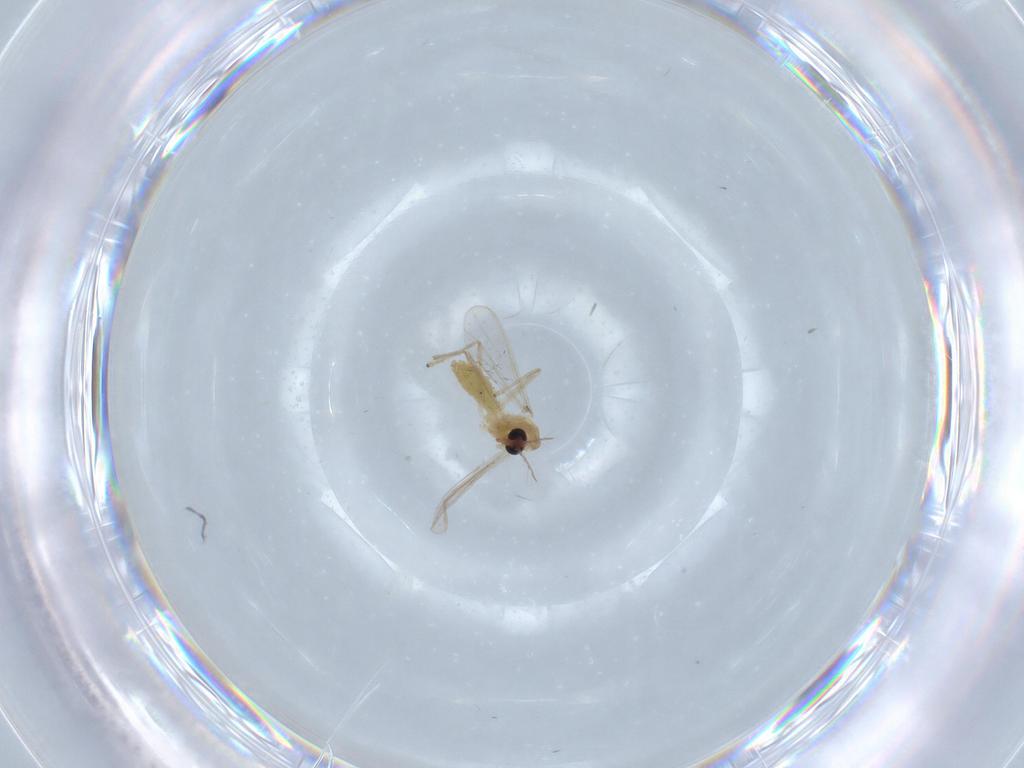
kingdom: Animalia
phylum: Arthropoda
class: Insecta
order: Diptera
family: Chironomidae
